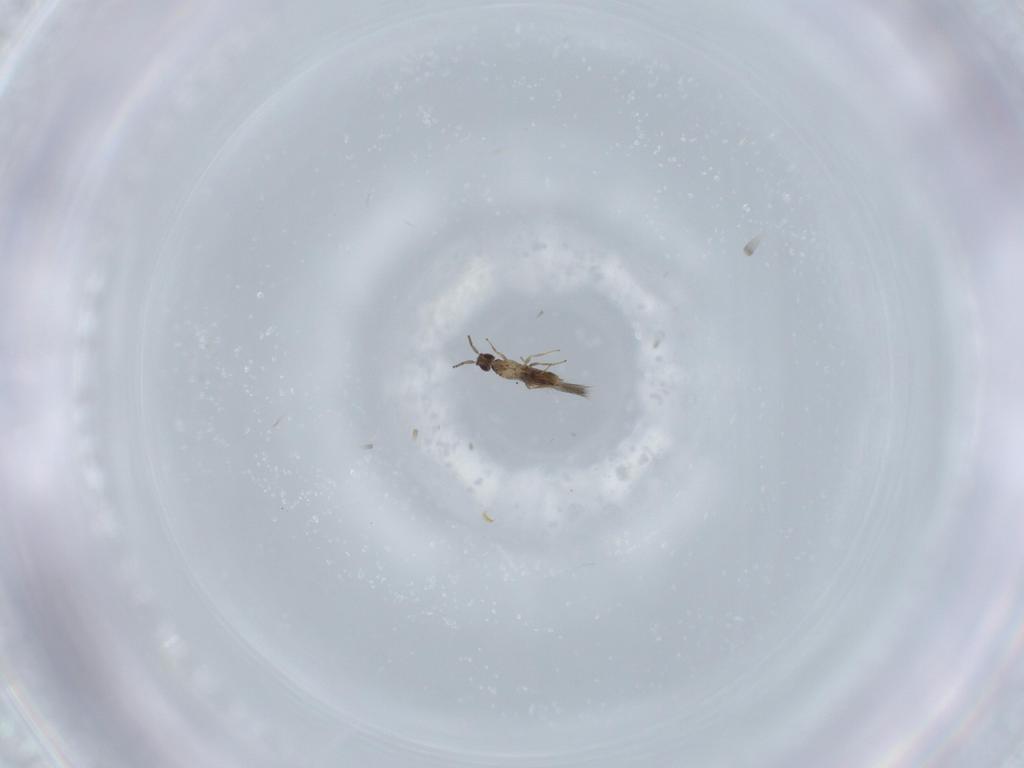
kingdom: Animalia
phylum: Arthropoda
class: Insecta
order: Hymenoptera
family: Mymaridae
